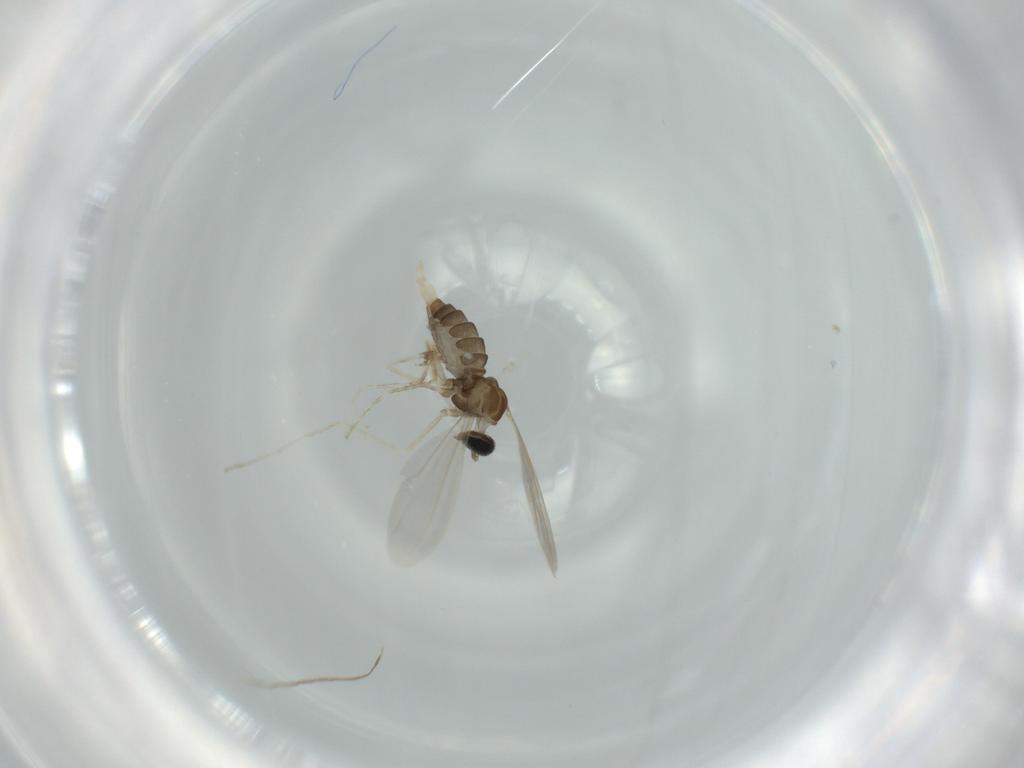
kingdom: Animalia
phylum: Arthropoda
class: Insecta
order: Diptera
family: Cecidomyiidae
